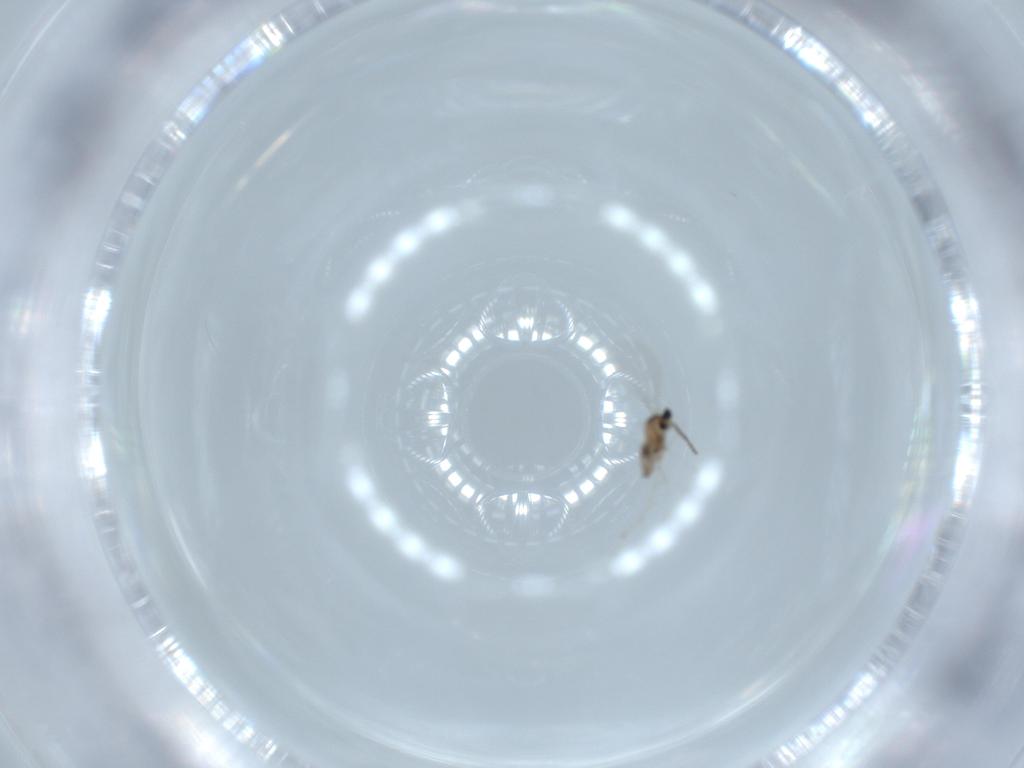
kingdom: Animalia
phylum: Arthropoda
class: Insecta
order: Diptera
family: Cecidomyiidae
